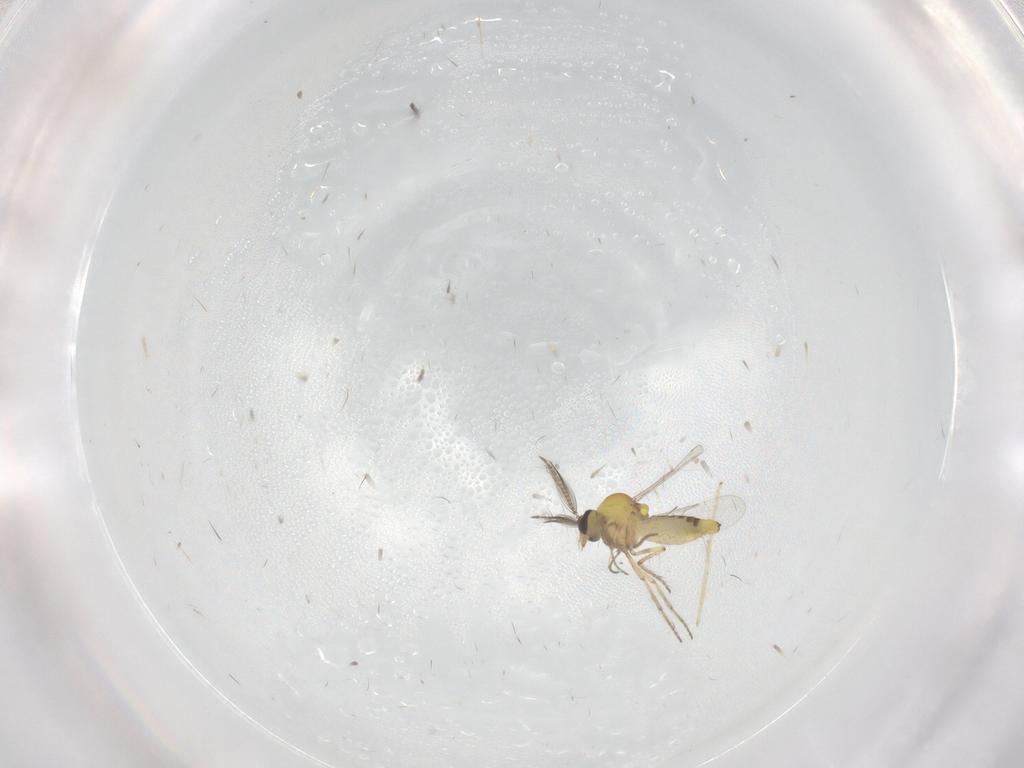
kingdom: Animalia
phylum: Arthropoda
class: Insecta
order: Diptera
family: Chironomidae
